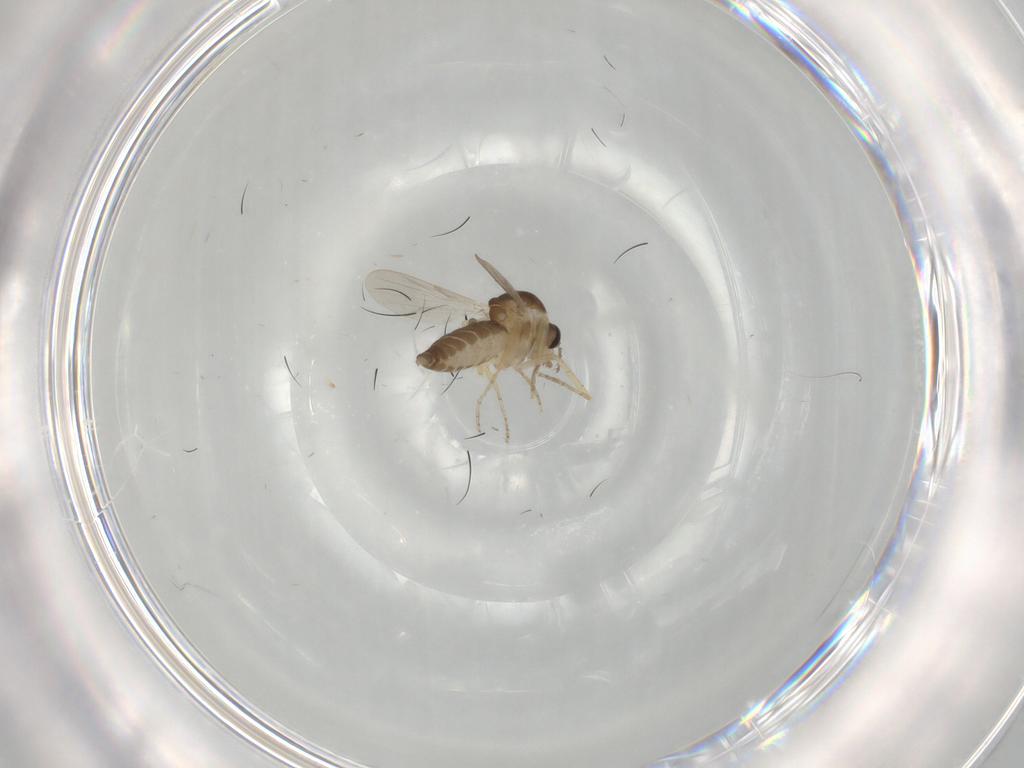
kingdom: Animalia
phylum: Arthropoda
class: Insecta
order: Diptera
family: Ceratopogonidae
